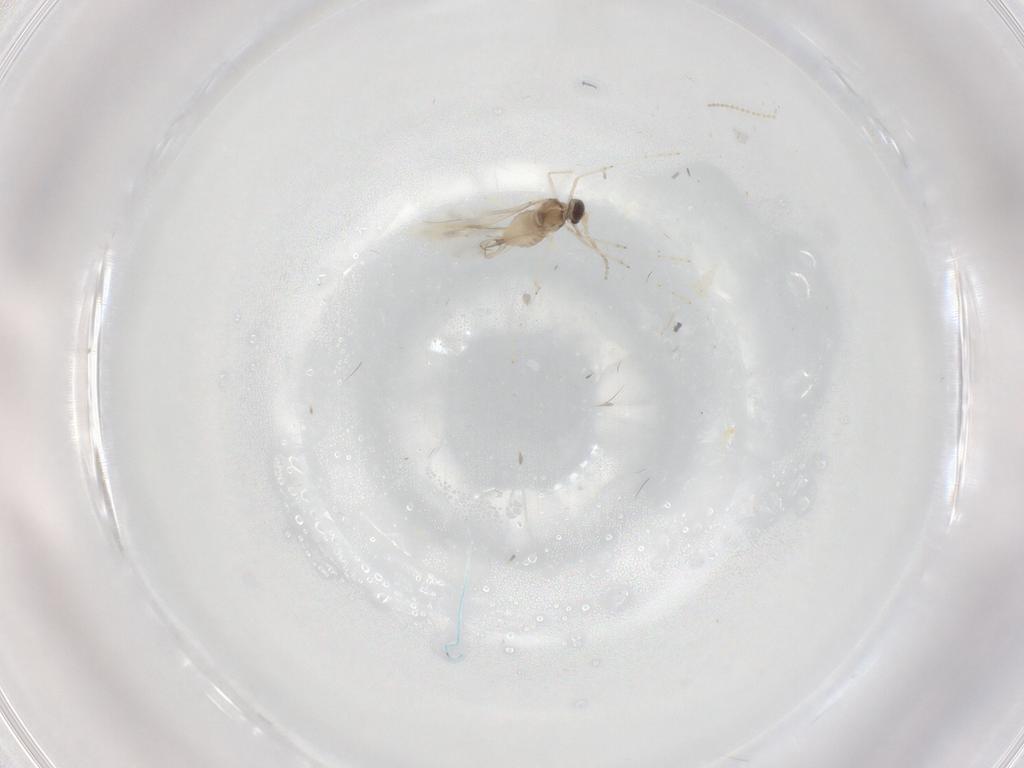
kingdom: Animalia
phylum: Arthropoda
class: Insecta
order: Diptera
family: Cecidomyiidae
